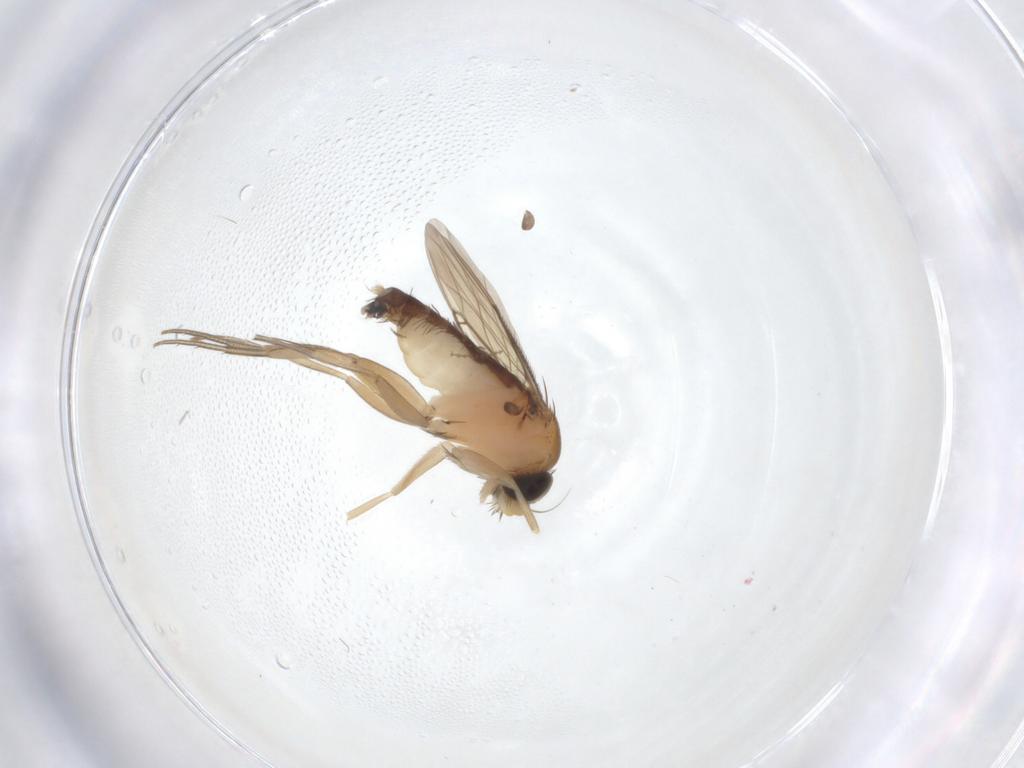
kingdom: Animalia
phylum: Arthropoda
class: Insecta
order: Diptera
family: Phoridae
